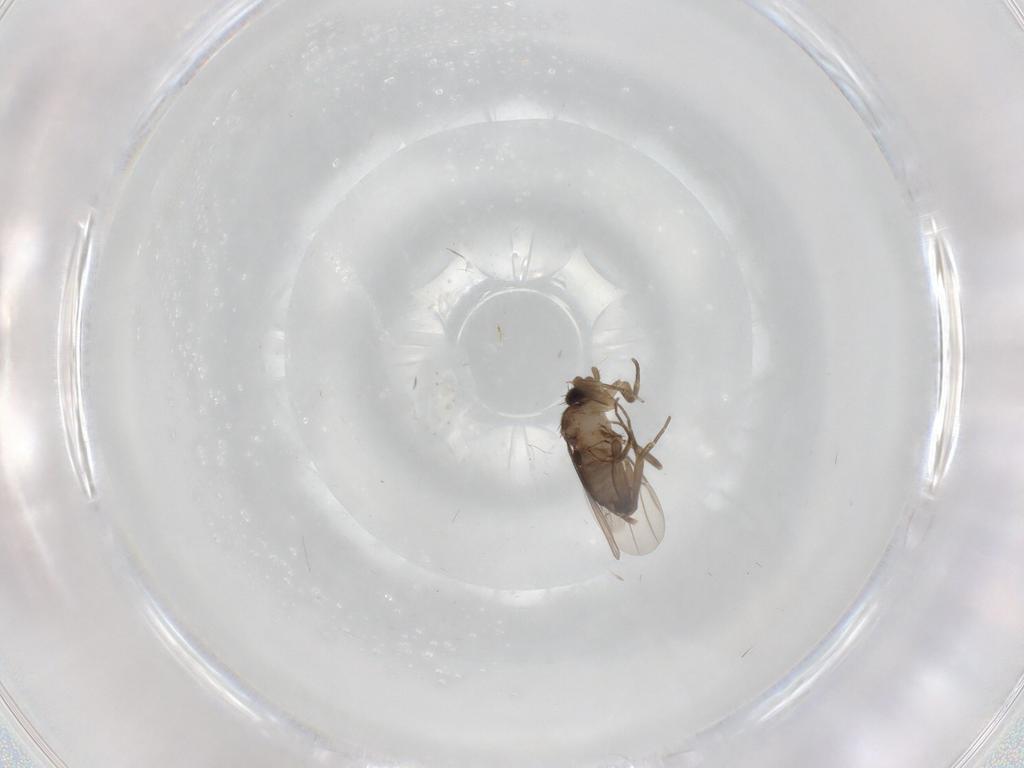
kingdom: Animalia
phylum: Arthropoda
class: Insecta
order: Diptera
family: Phoridae
